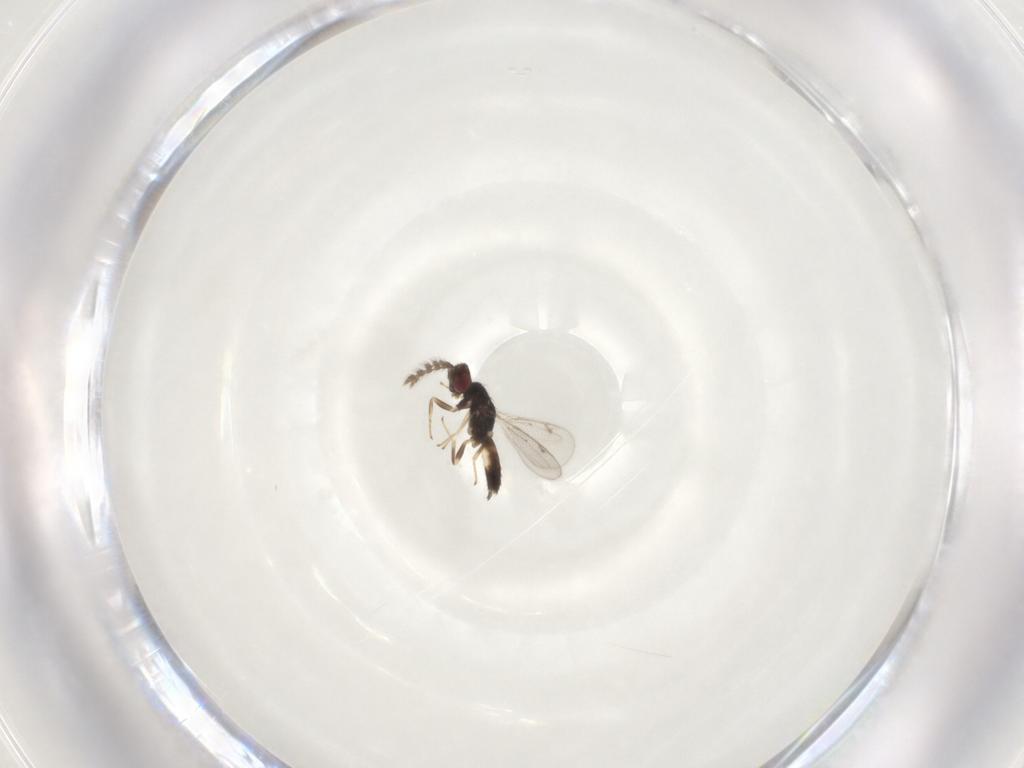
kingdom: Animalia
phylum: Arthropoda
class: Insecta
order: Hymenoptera
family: Eulophidae
